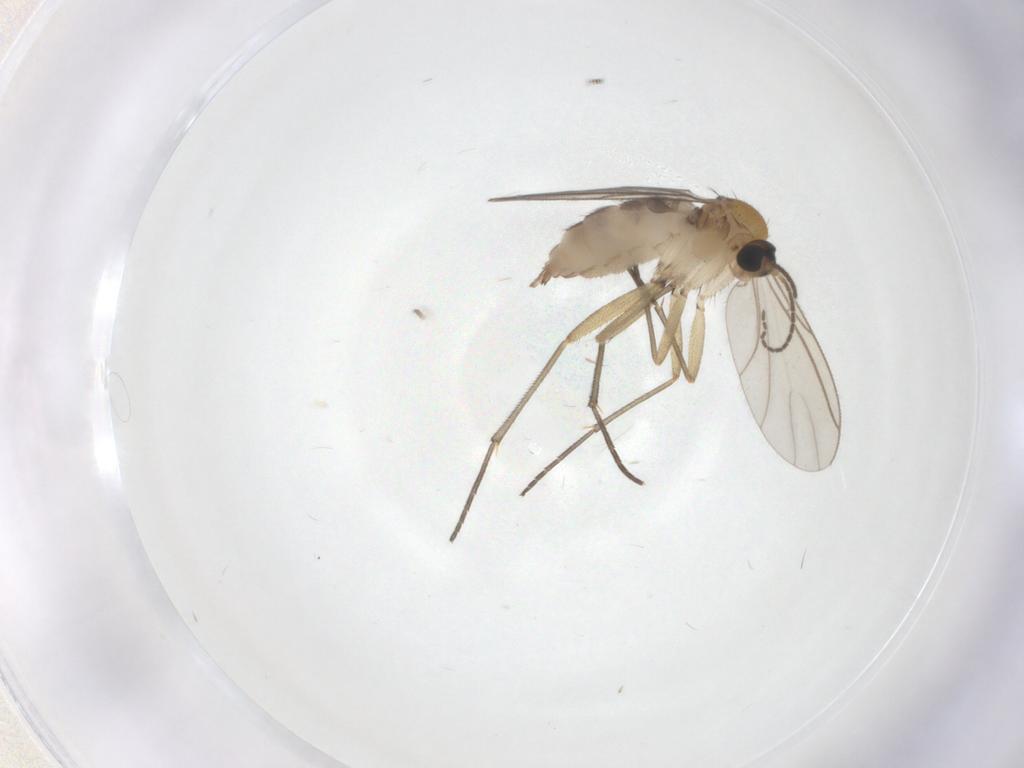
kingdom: Animalia
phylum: Arthropoda
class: Insecta
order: Diptera
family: Sciaridae
